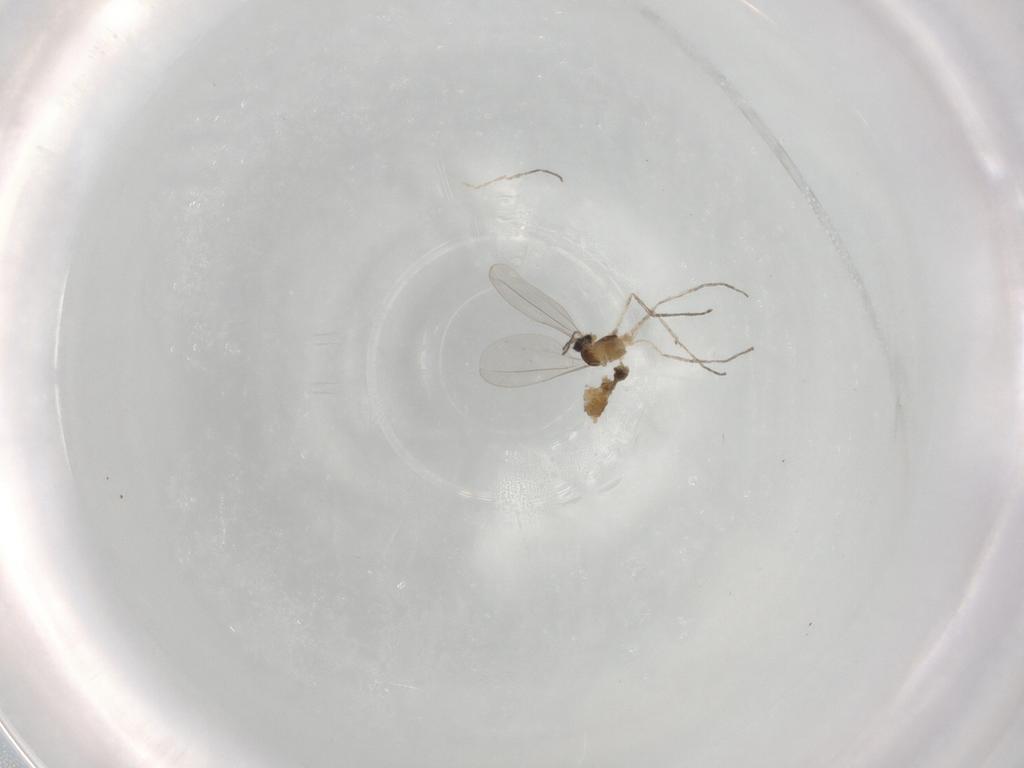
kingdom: Animalia
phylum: Arthropoda
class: Insecta
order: Diptera
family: Cecidomyiidae
